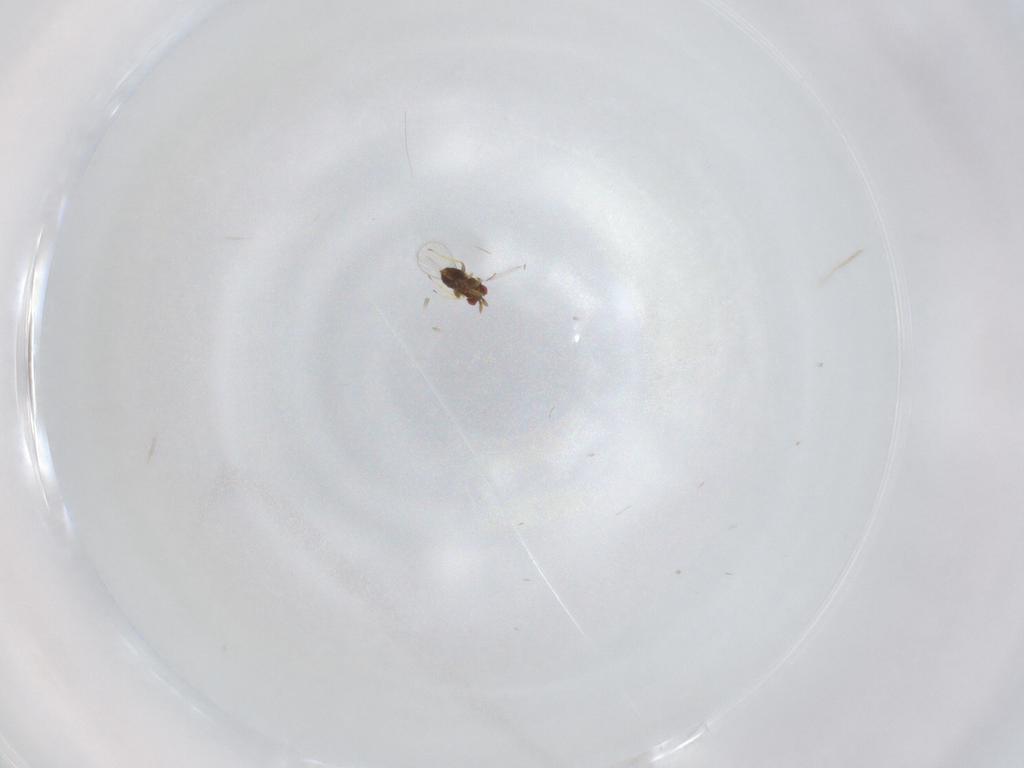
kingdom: Animalia
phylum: Arthropoda
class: Insecta
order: Hymenoptera
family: Trichogrammatidae
